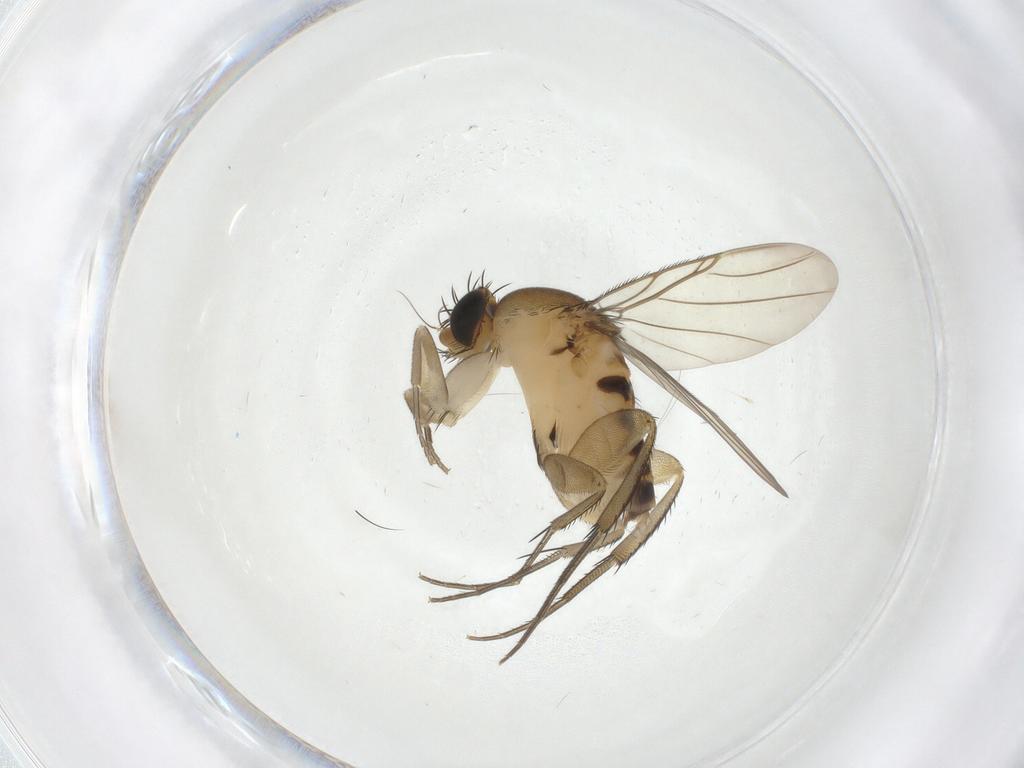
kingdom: Animalia
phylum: Arthropoda
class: Insecta
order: Diptera
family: Phoridae
